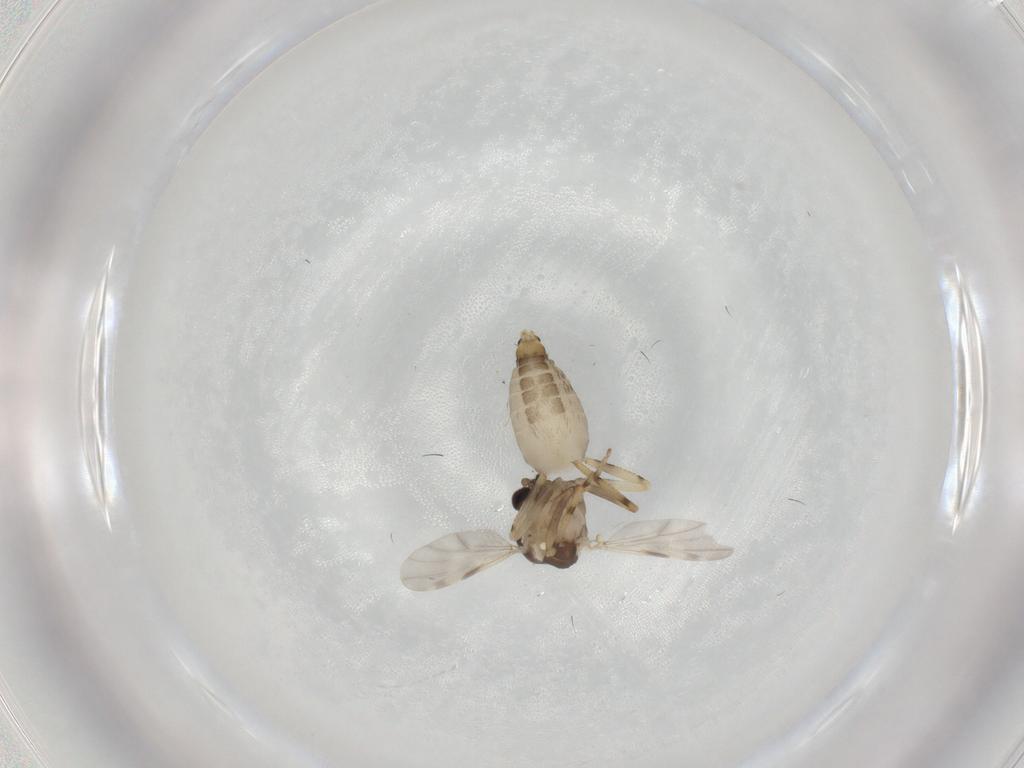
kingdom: Animalia
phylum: Arthropoda
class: Insecta
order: Diptera
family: Ceratopogonidae
